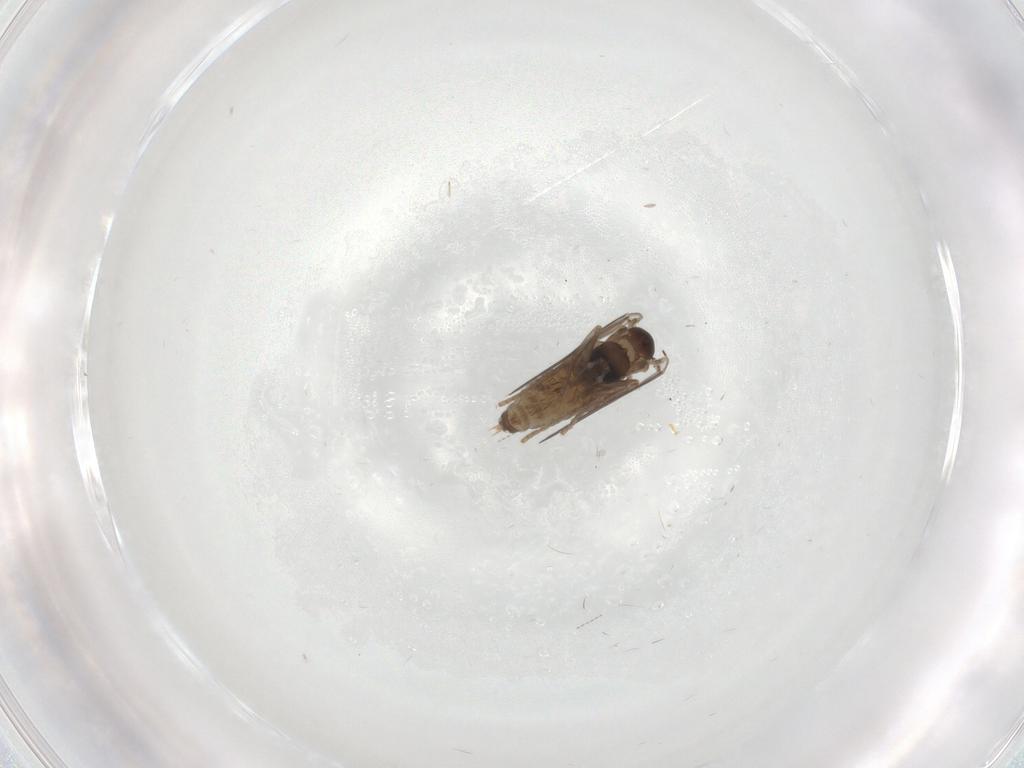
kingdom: Animalia
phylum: Arthropoda
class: Insecta
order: Diptera
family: Psychodidae
